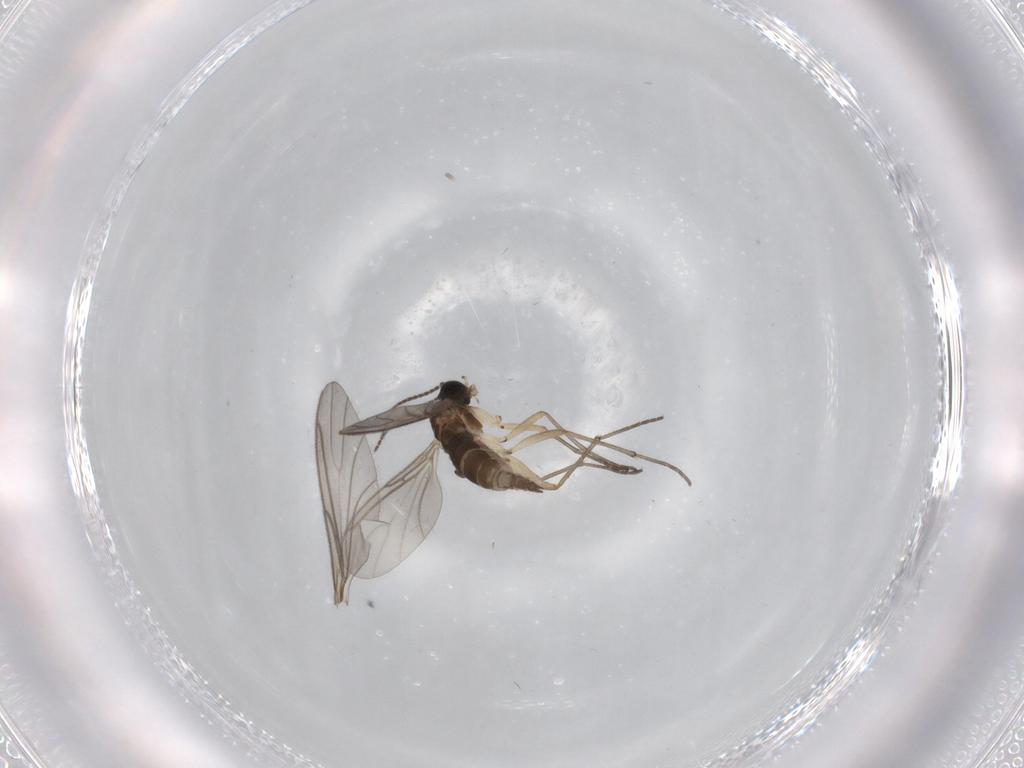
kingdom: Animalia
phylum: Arthropoda
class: Insecta
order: Diptera
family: Sciaridae
